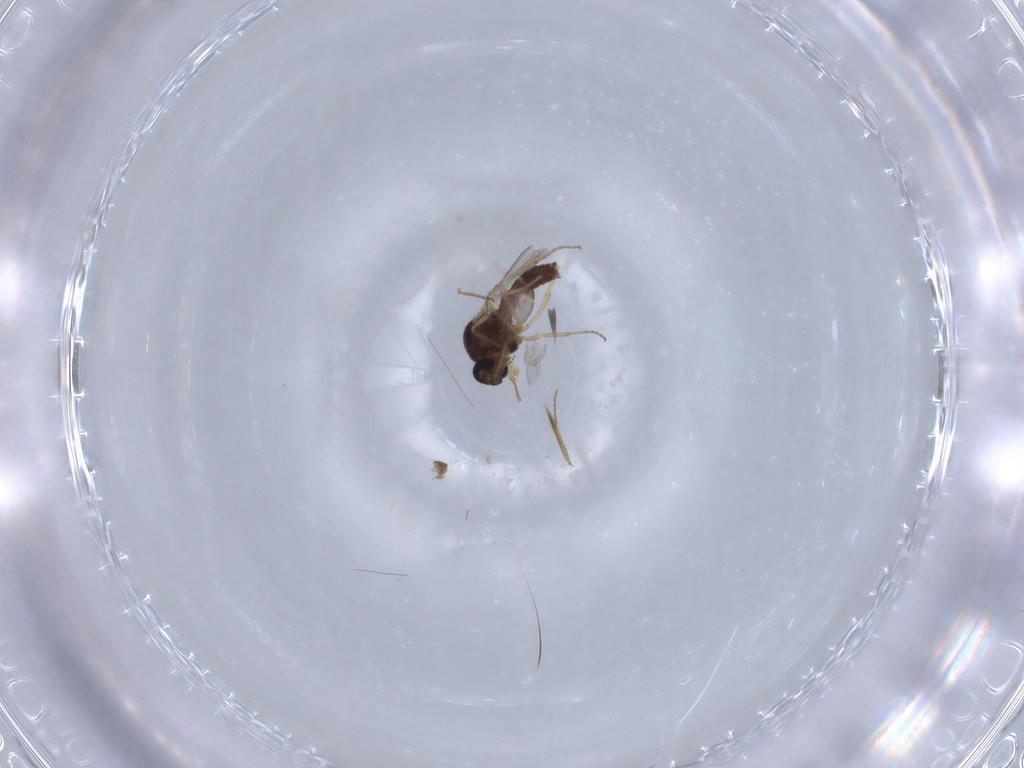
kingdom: Animalia
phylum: Arthropoda
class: Insecta
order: Diptera
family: Ceratopogonidae
